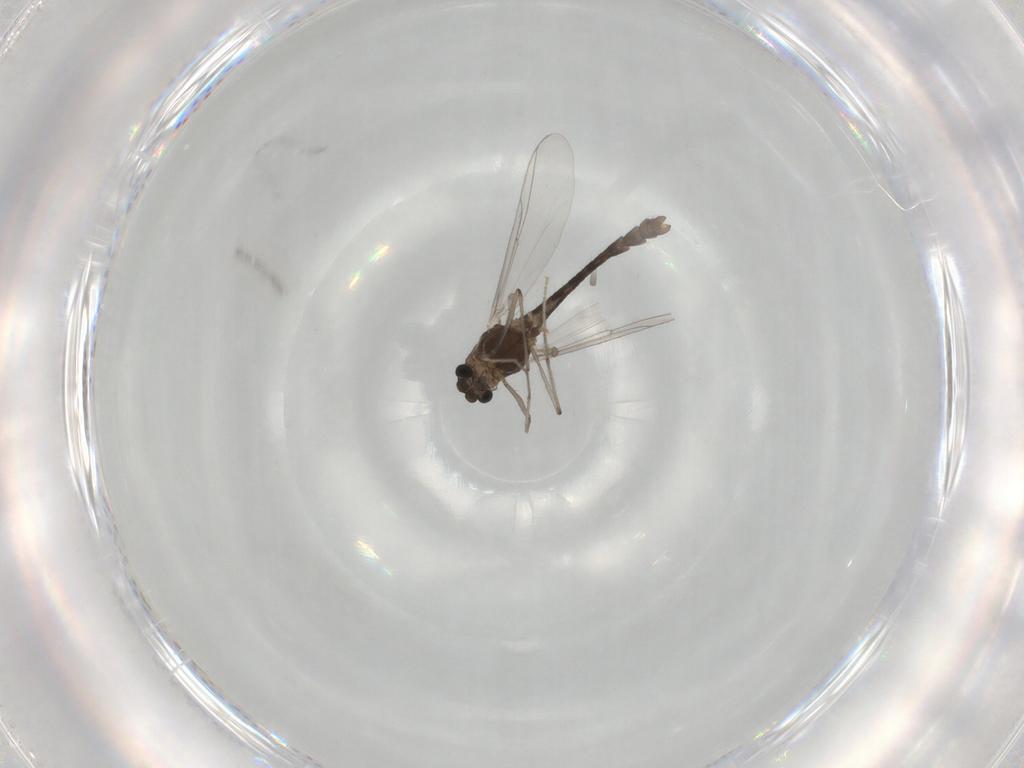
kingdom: Animalia
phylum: Arthropoda
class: Insecta
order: Diptera
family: Chironomidae
